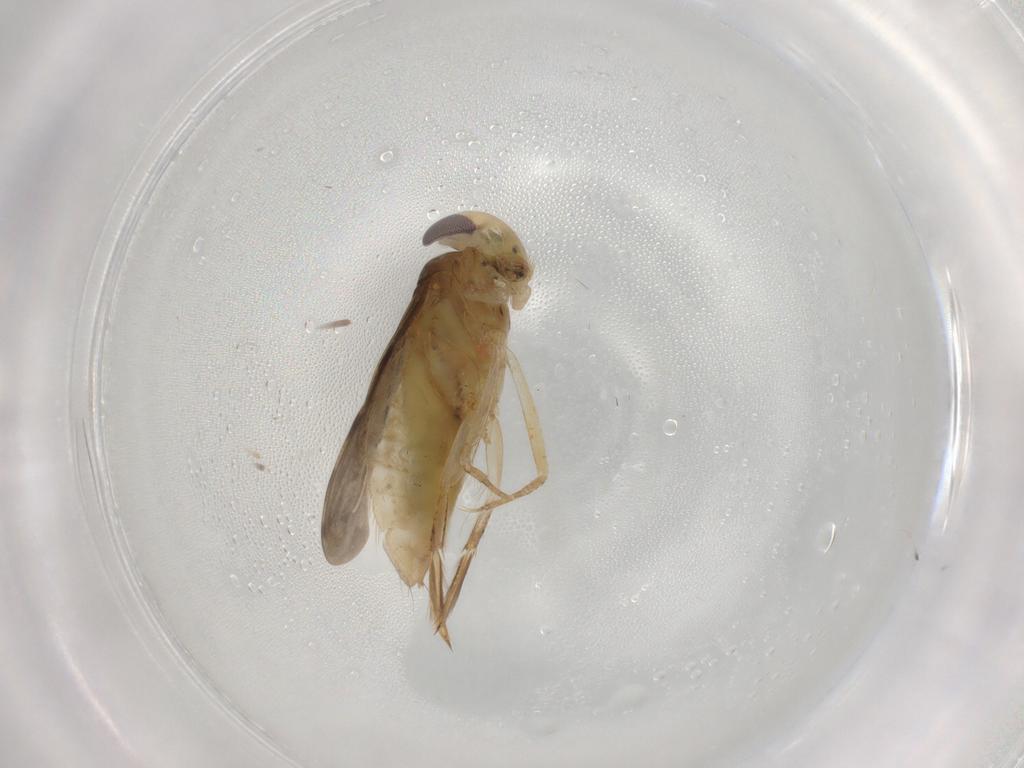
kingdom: Animalia
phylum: Arthropoda
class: Insecta
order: Hemiptera
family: Corixidae
